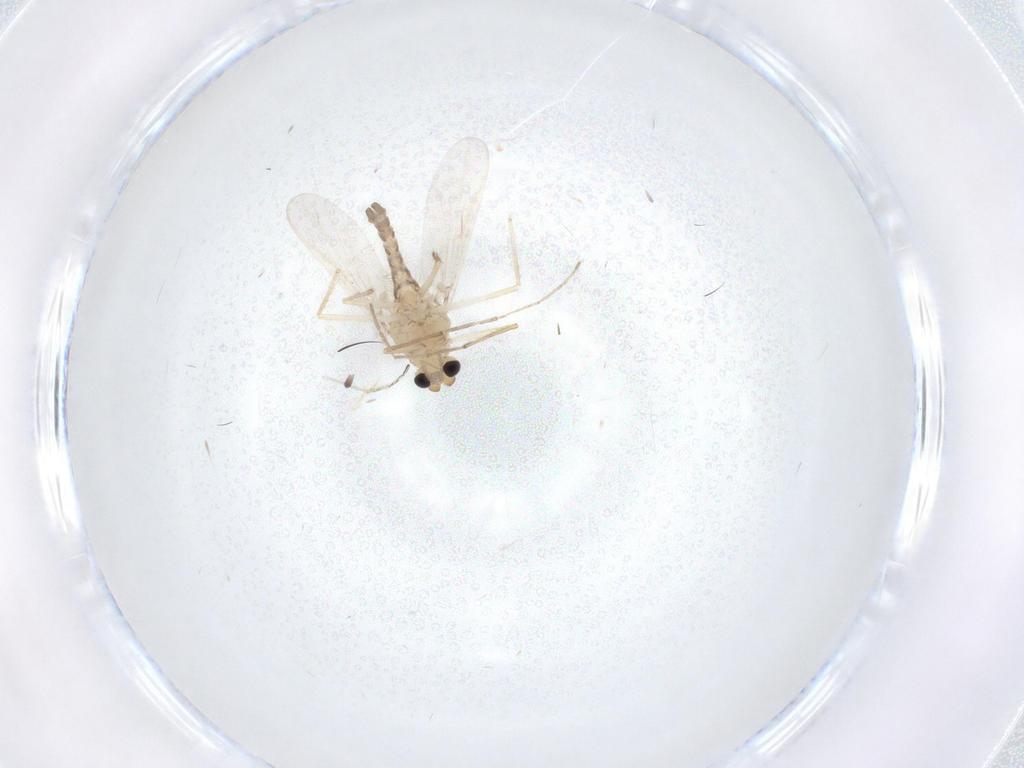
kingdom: Animalia
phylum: Arthropoda
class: Insecta
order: Diptera
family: Chironomidae
